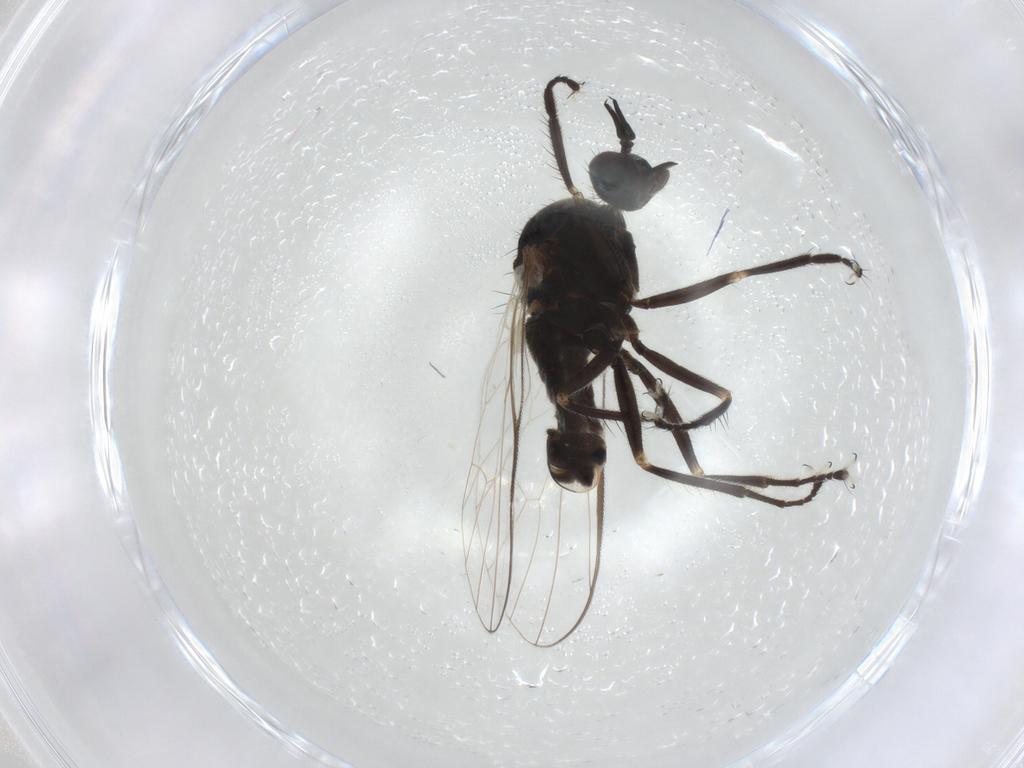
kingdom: Animalia
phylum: Arthropoda
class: Insecta
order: Diptera
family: Empididae
